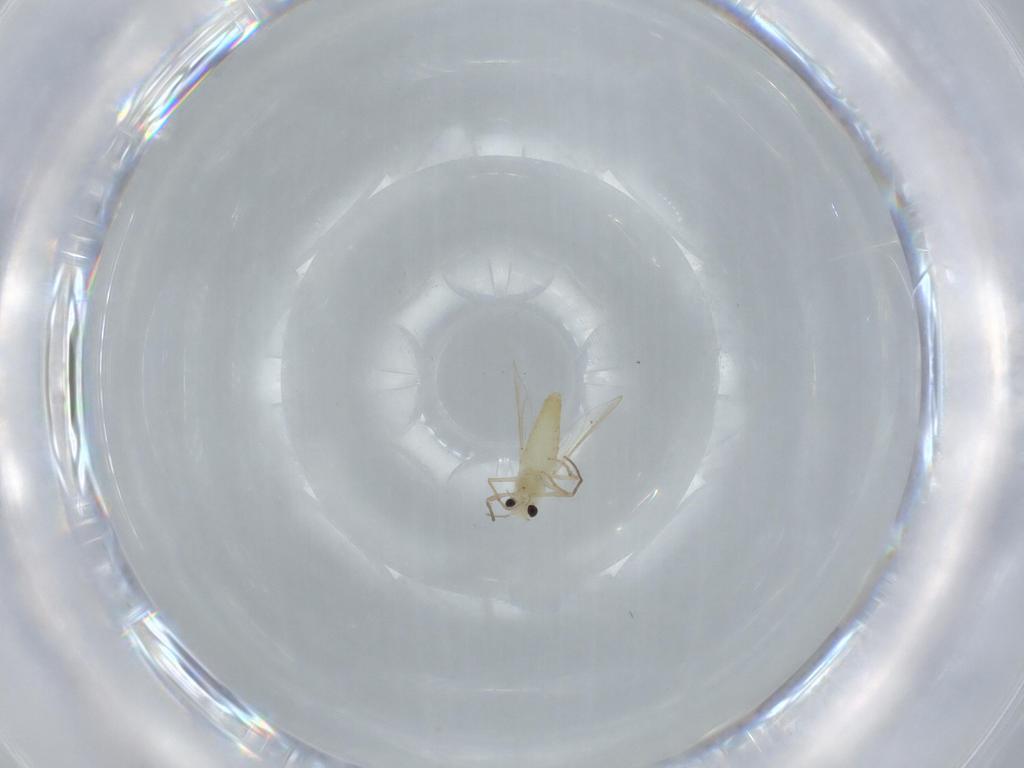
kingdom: Animalia
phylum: Arthropoda
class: Insecta
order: Diptera
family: Chironomidae
